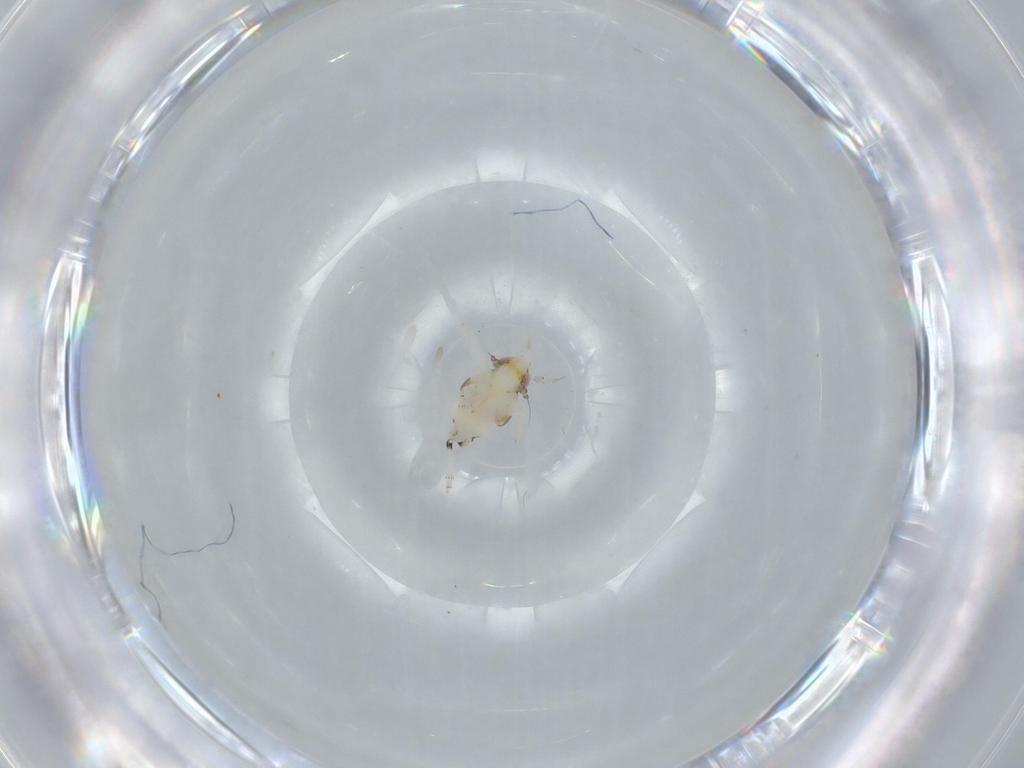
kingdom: Animalia
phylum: Arthropoda
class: Insecta
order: Hemiptera
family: Nogodinidae
